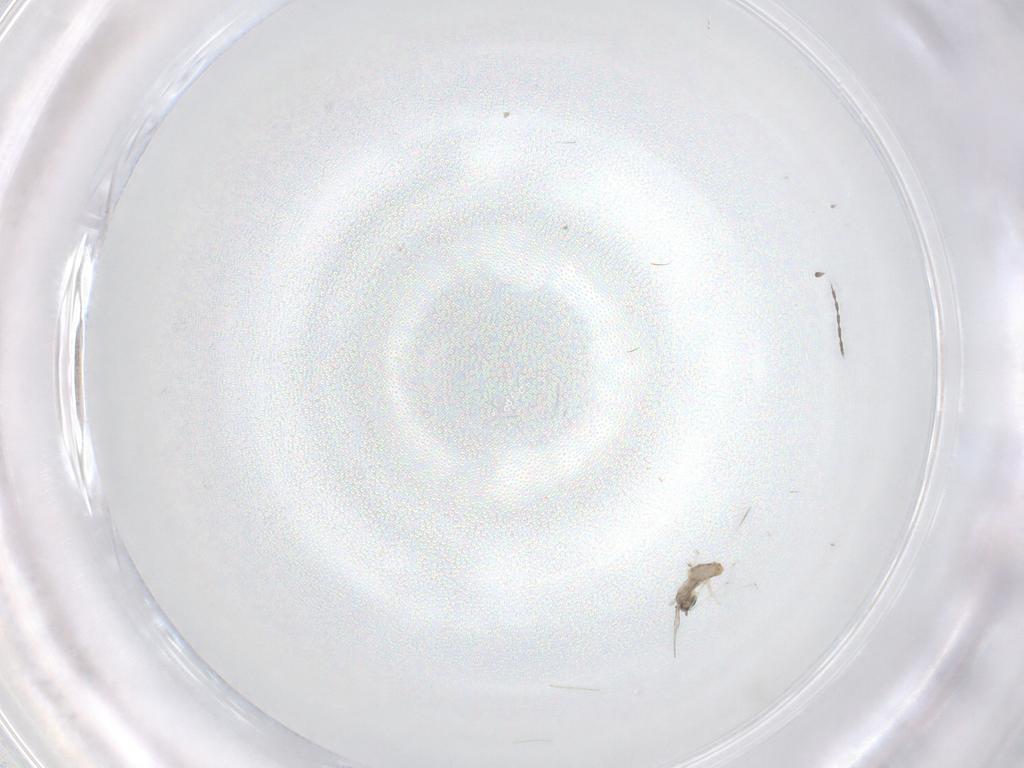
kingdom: Animalia
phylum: Arthropoda
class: Insecta
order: Diptera
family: Cecidomyiidae
